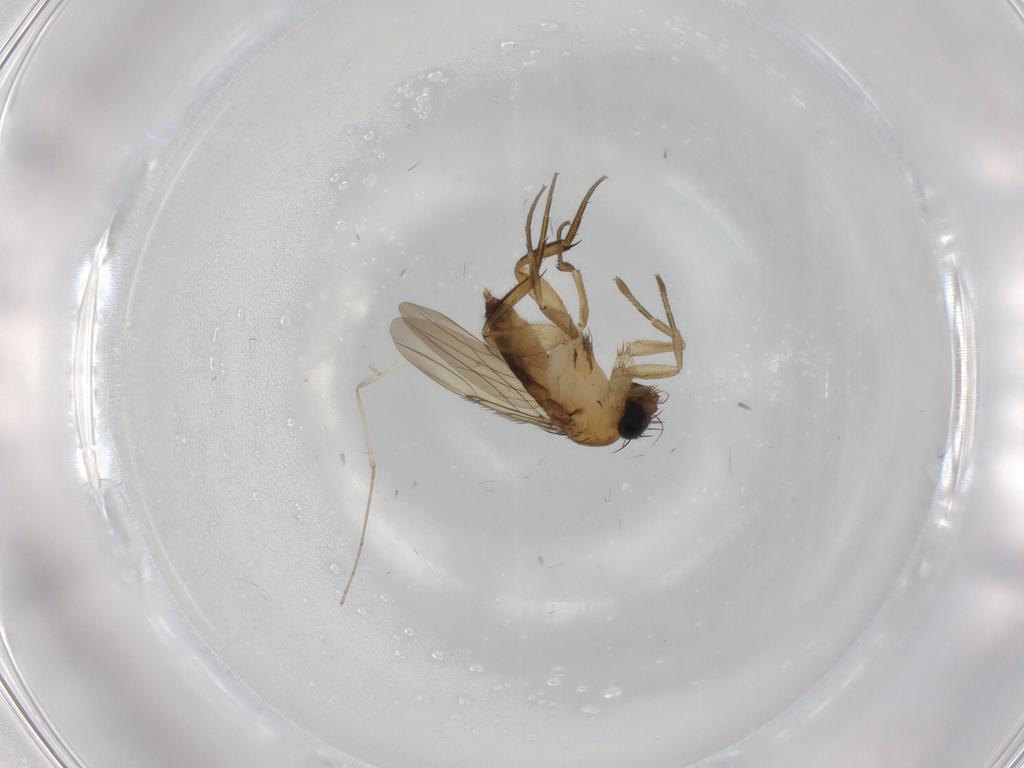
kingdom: Animalia
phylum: Arthropoda
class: Insecta
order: Diptera
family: Phoridae
